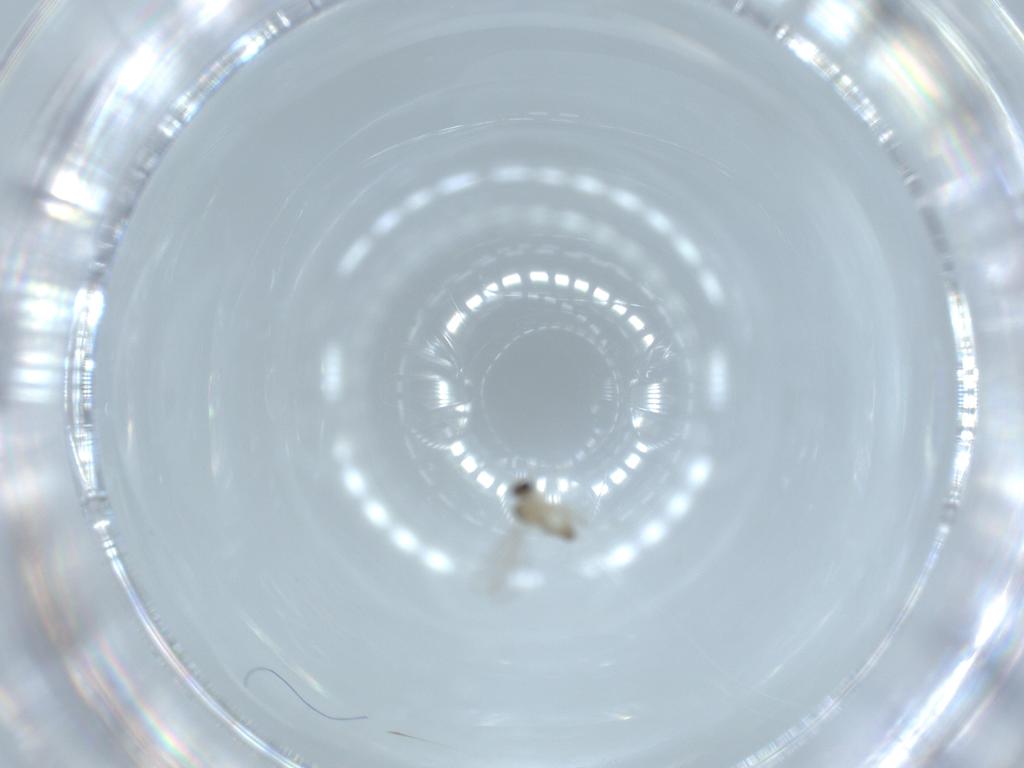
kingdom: Animalia
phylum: Arthropoda
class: Insecta
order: Diptera
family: Cecidomyiidae
